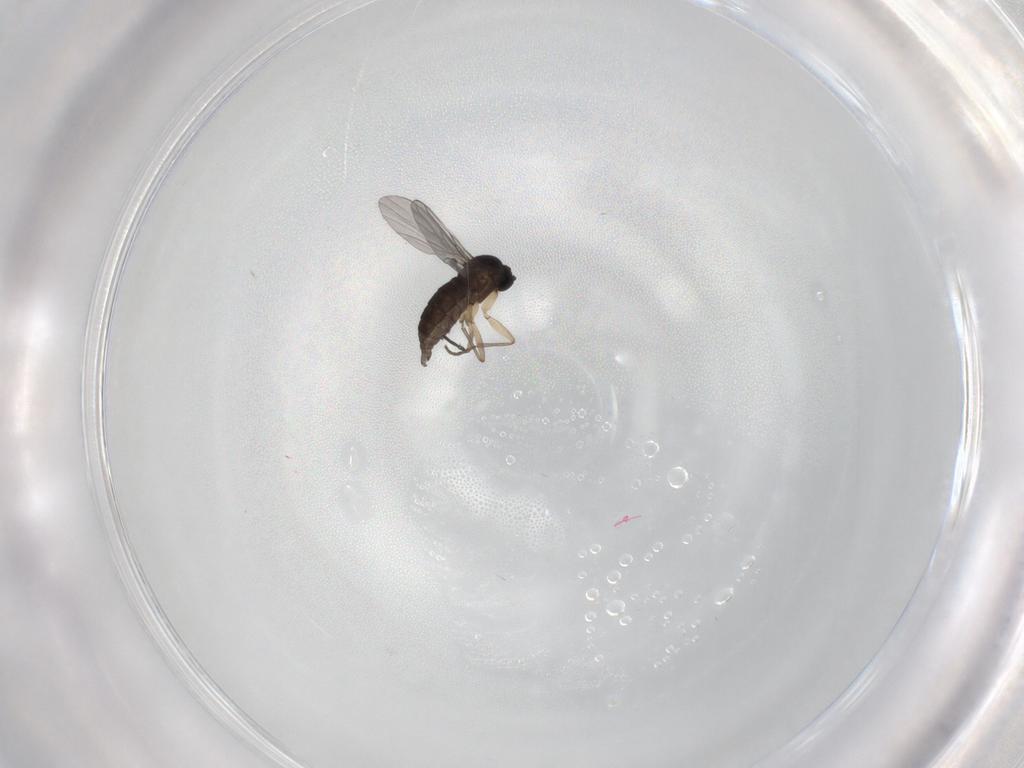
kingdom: Animalia
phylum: Arthropoda
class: Insecta
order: Diptera
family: Sciaridae
